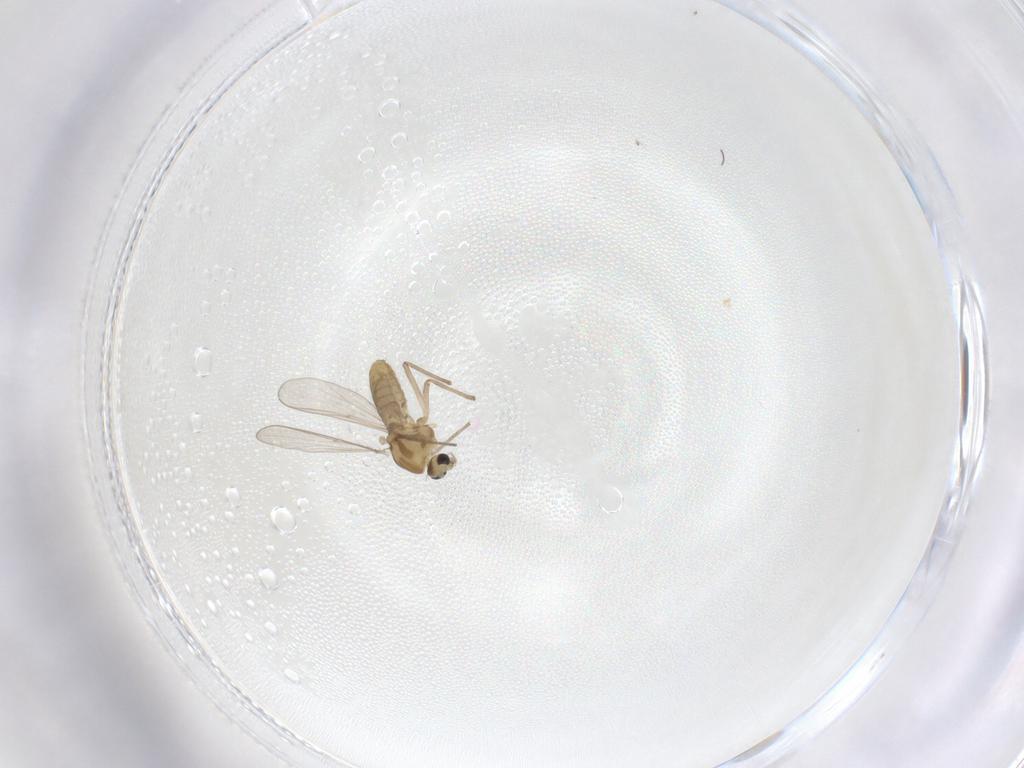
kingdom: Animalia
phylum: Arthropoda
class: Insecta
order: Diptera
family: Chironomidae
